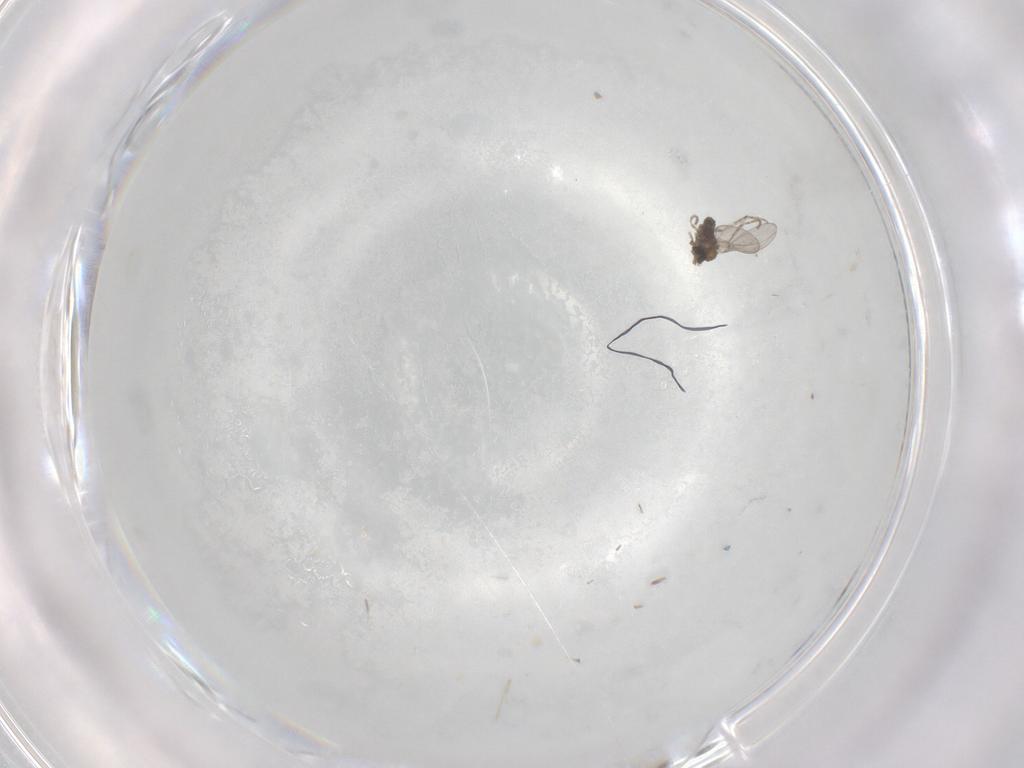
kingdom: Animalia
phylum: Arthropoda
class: Insecta
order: Diptera
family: Cecidomyiidae
